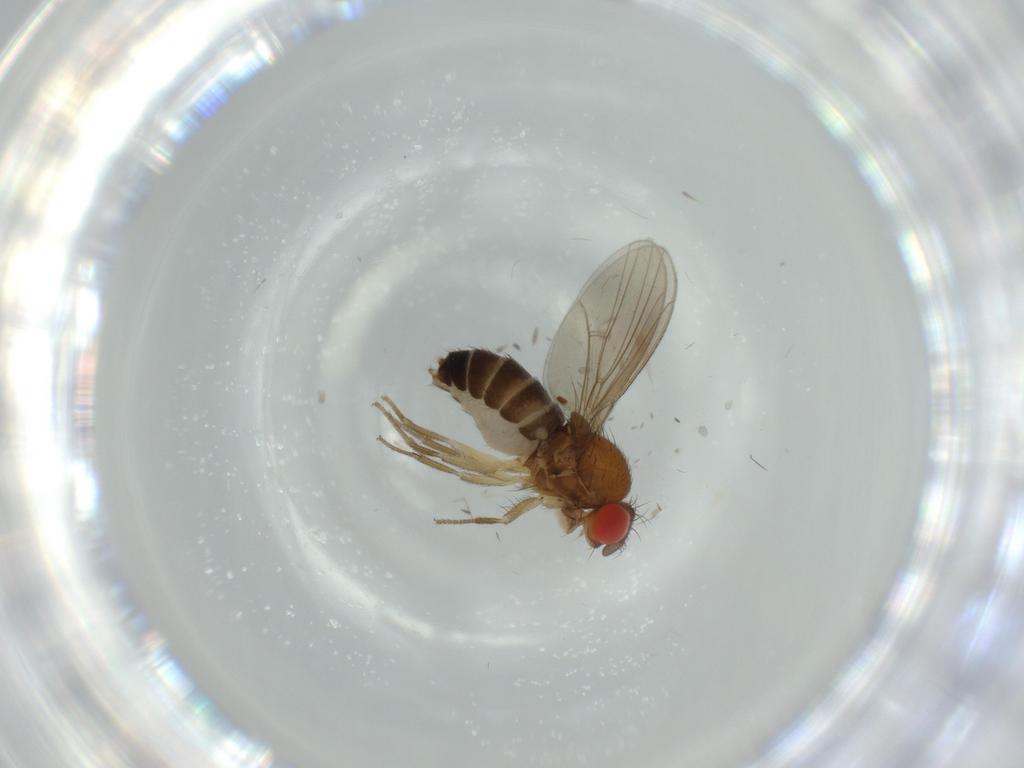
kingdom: Animalia
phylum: Arthropoda
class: Insecta
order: Diptera
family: Drosophilidae
